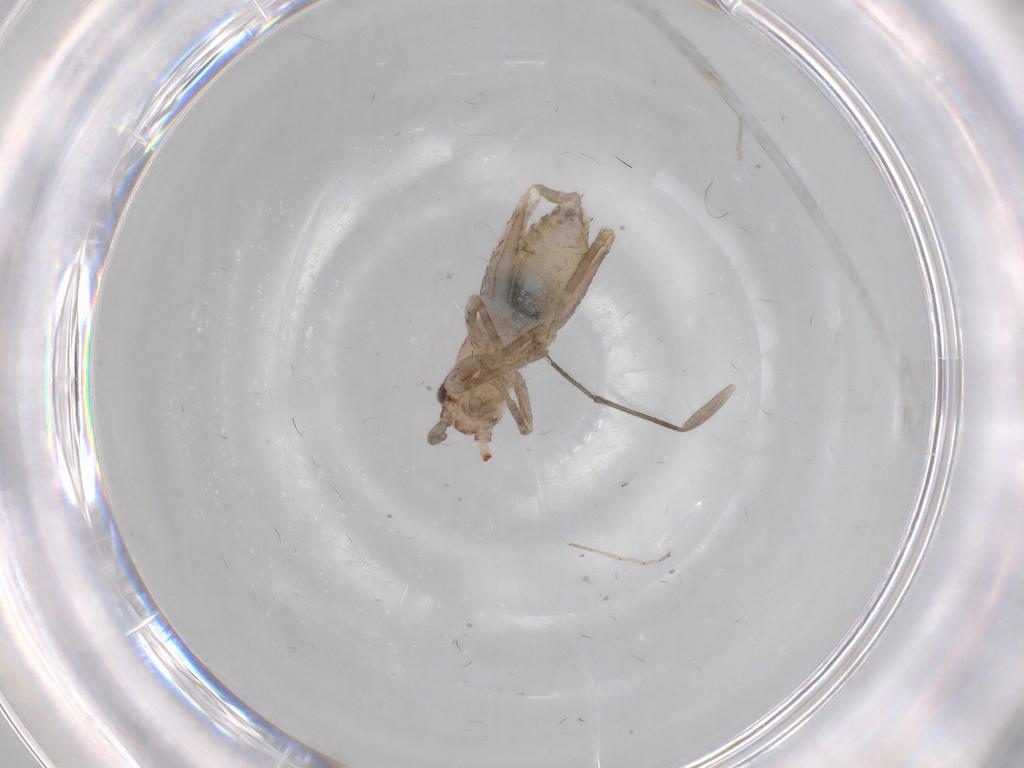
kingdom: Animalia
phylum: Arthropoda
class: Insecta
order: Orthoptera
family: Mogoplistidae
